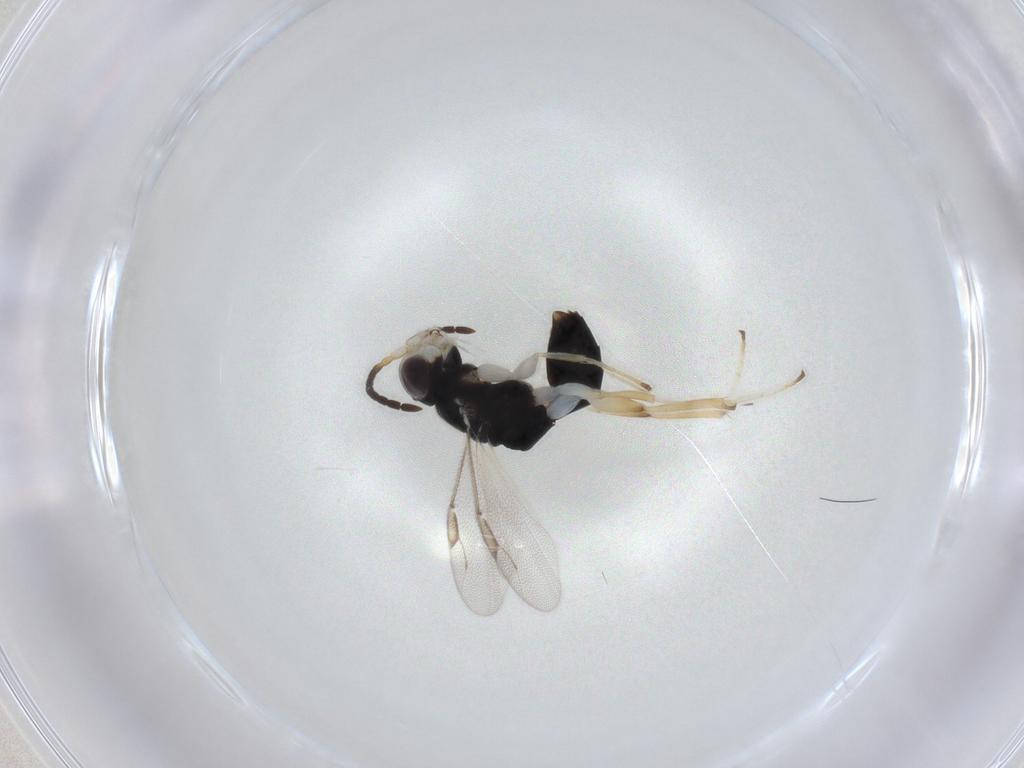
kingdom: Animalia
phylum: Arthropoda
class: Insecta
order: Hymenoptera
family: Dryinidae
